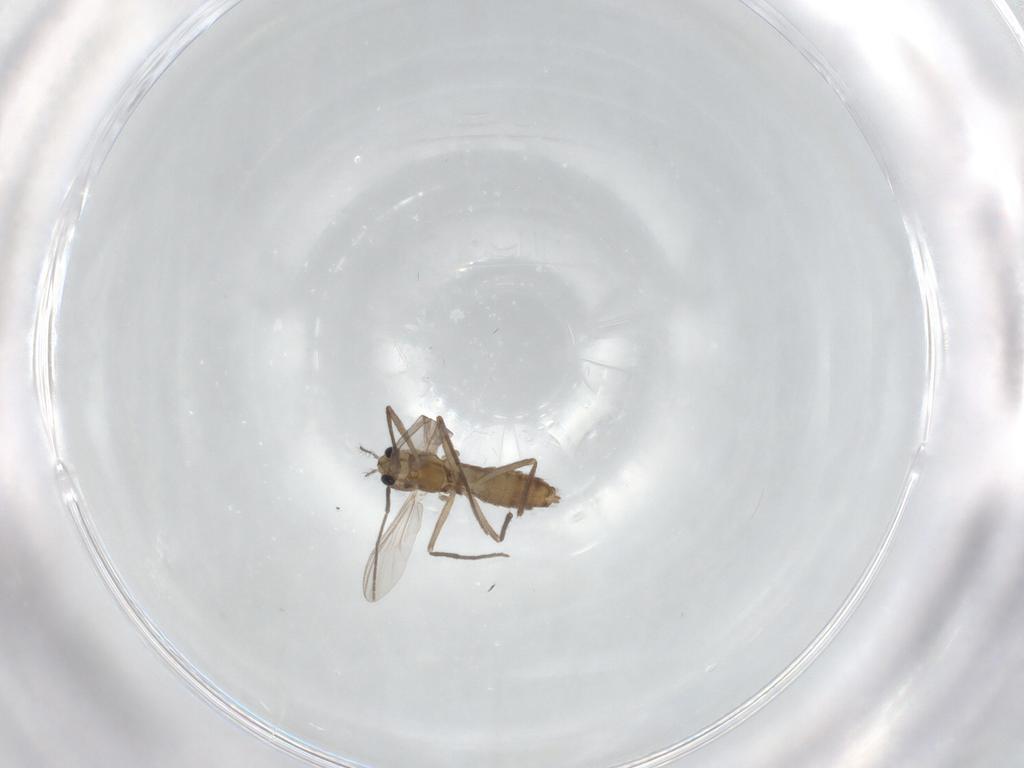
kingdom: Animalia
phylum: Arthropoda
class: Insecta
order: Diptera
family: Chironomidae
